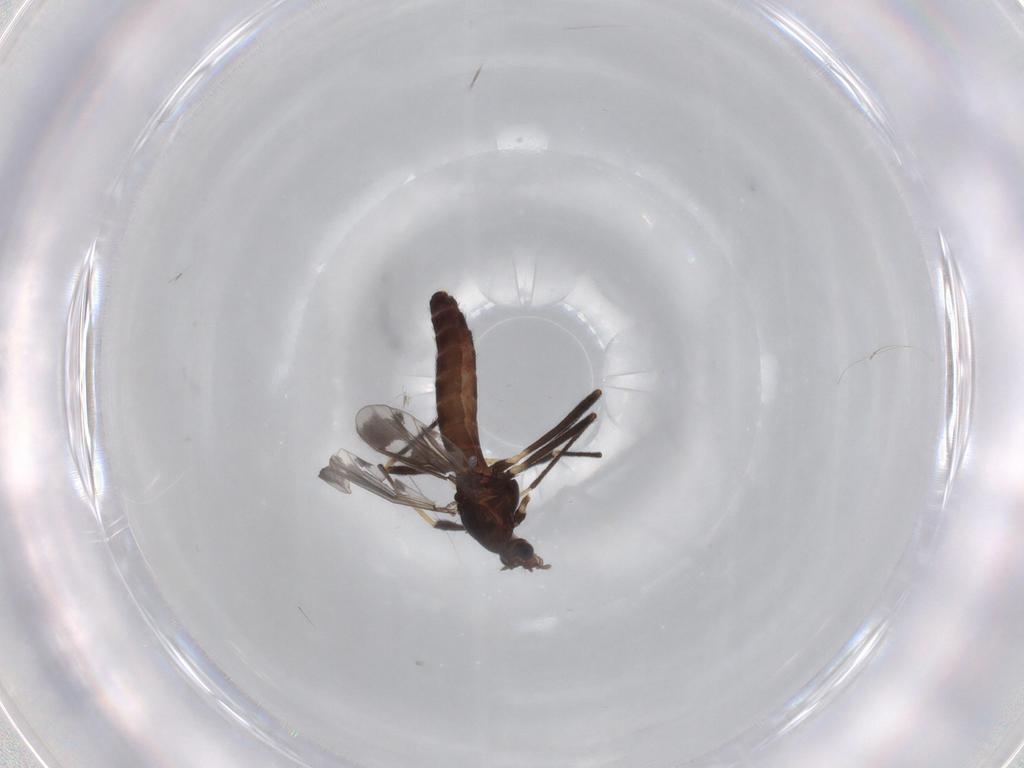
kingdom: Animalia
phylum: Arthropoda
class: Insecta
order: Diptera
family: Chironomidae
